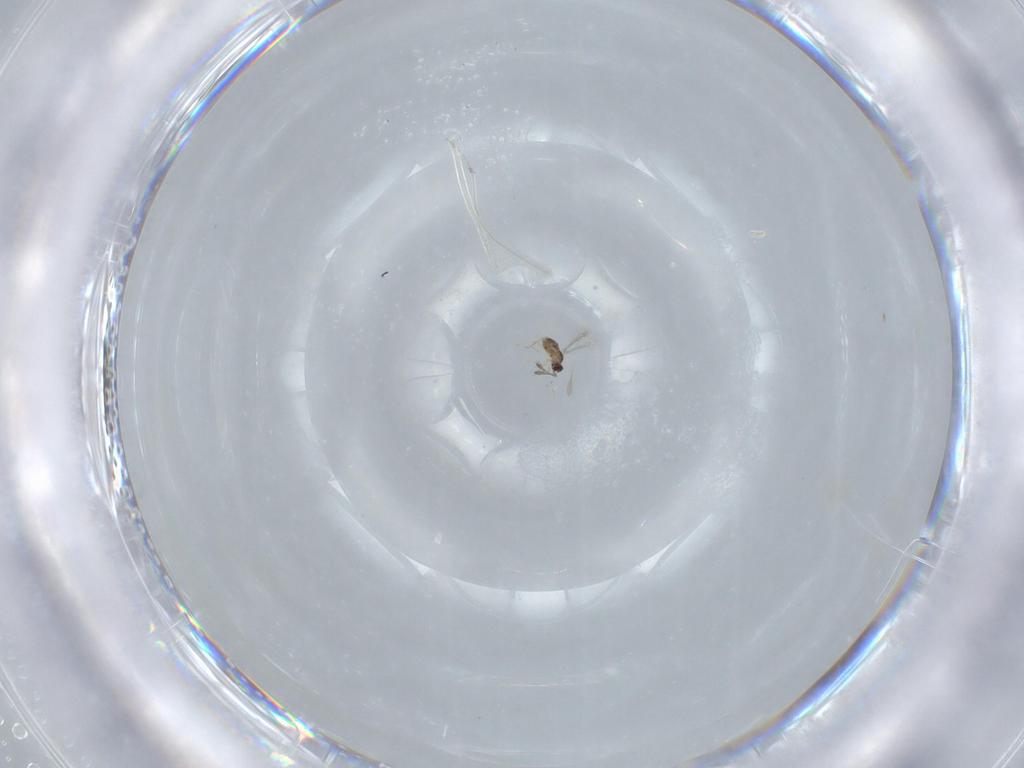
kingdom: Animalia
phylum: Arthropoda
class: Insecta
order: Hymenoptera
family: Mymaridae
